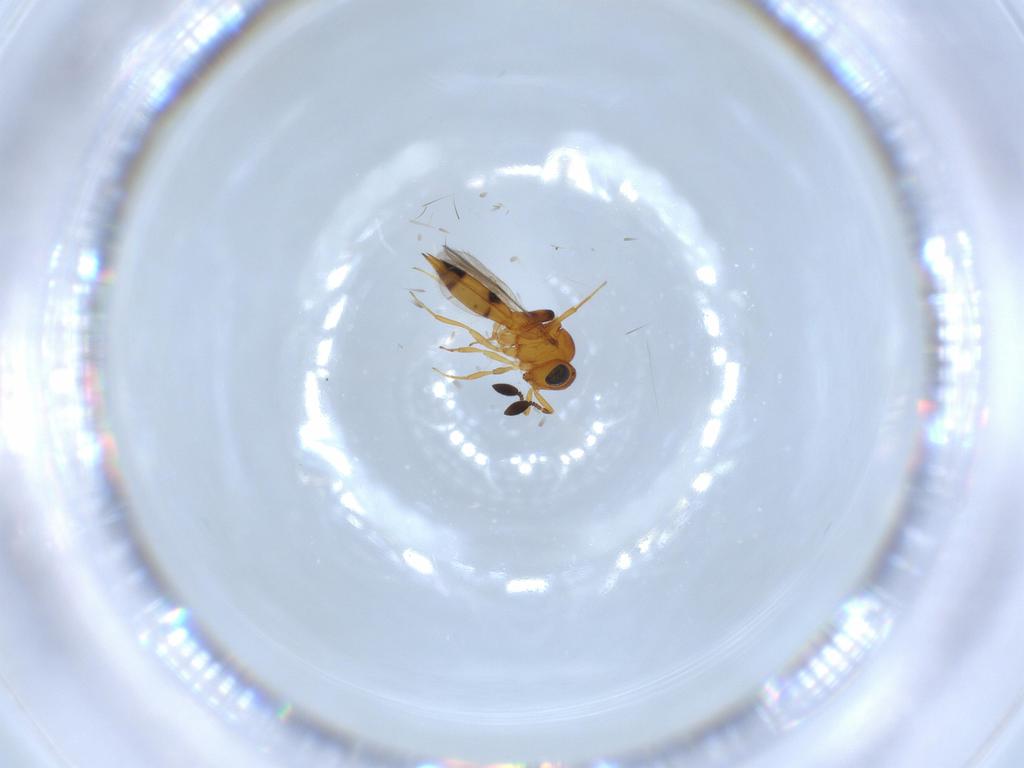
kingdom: Animalia
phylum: Arthropoda
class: Insecta
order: Hymenoptera
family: Scelionidae
